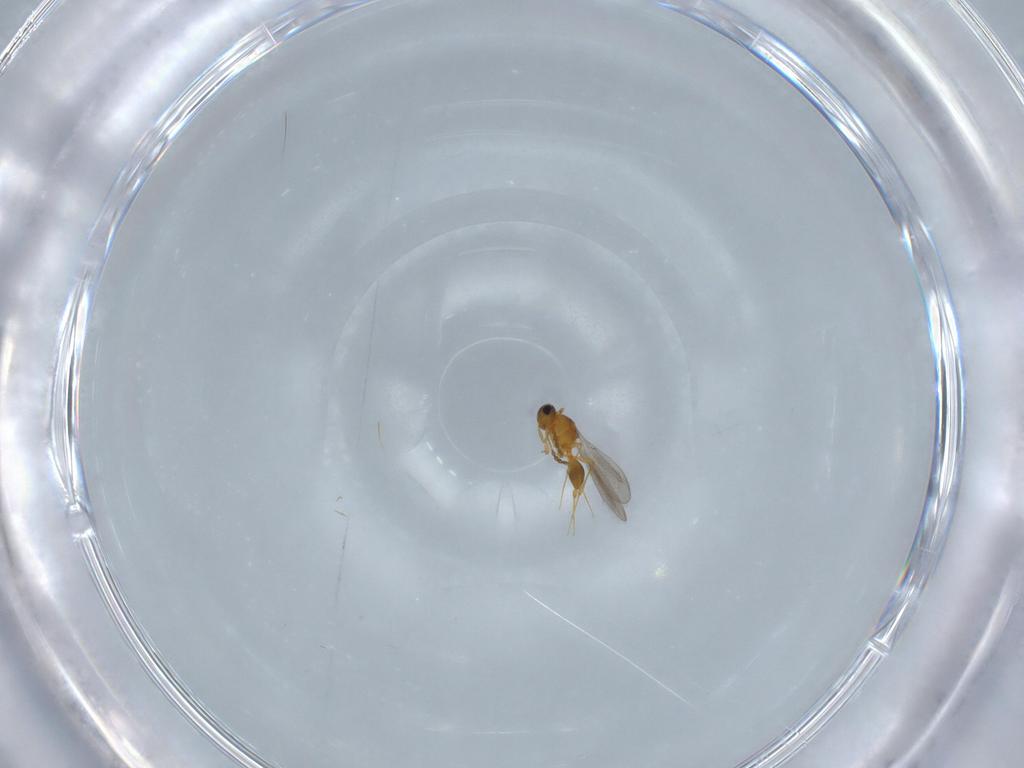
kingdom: Animalia
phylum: Arthropoda
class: Insecta
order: Hymenoptera
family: Platygastridae
